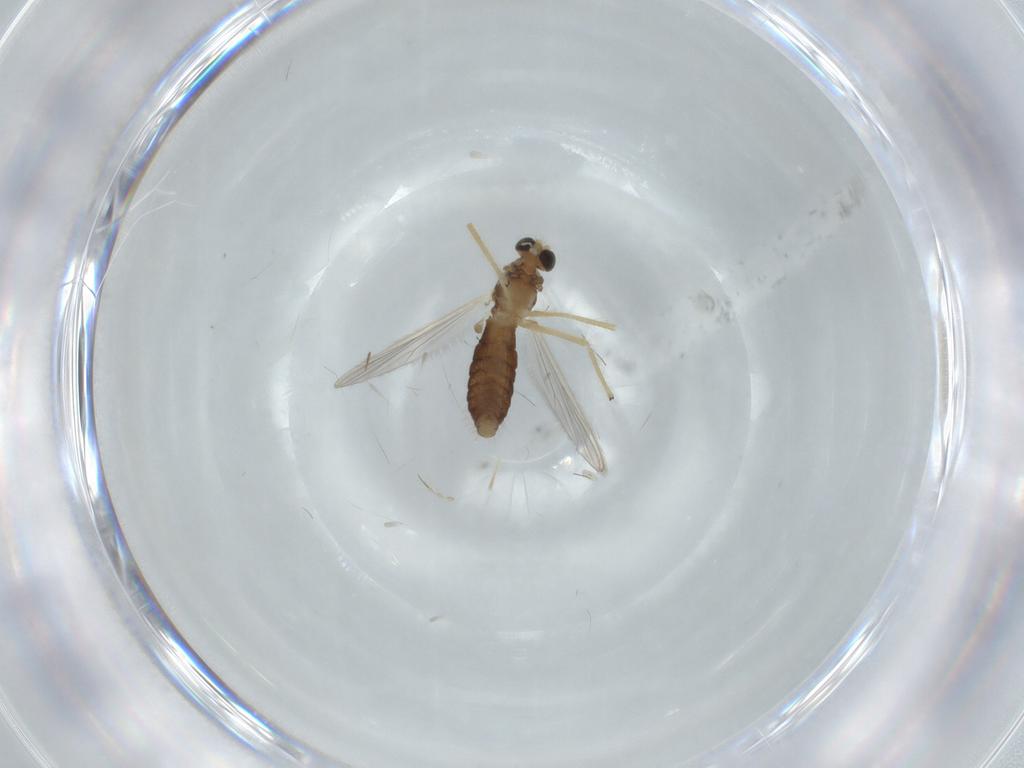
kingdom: Animalia
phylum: Arthropoda
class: Insecta
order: Diptera
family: Chironomidae
